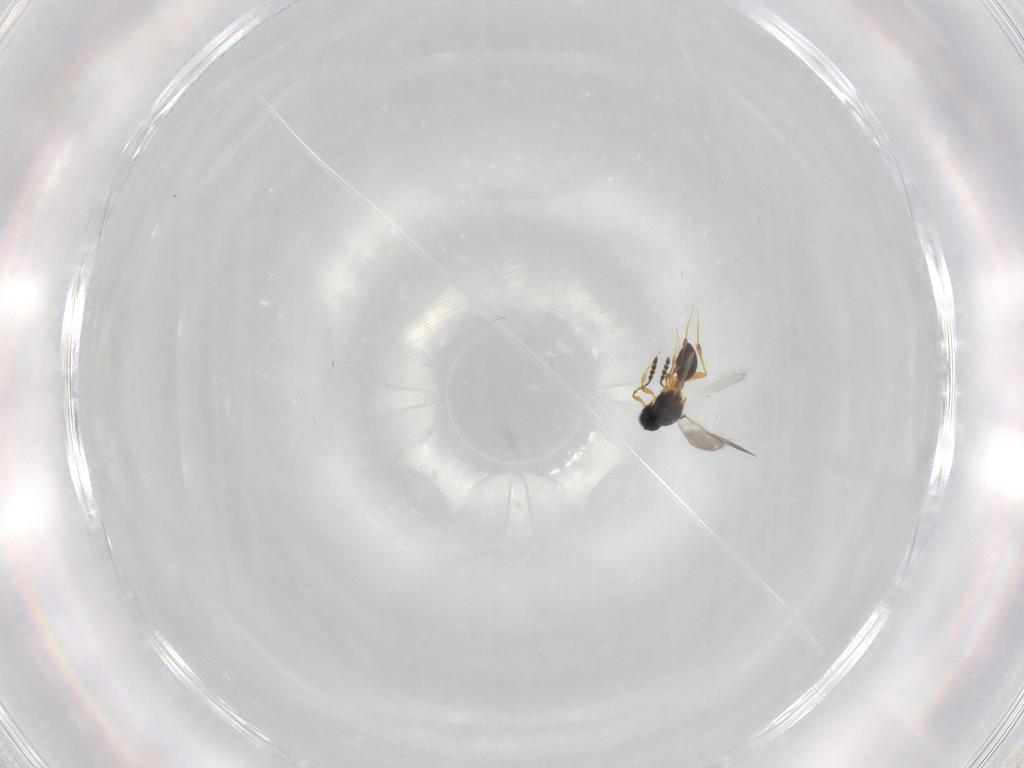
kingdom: Animalia
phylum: Arthropoda
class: Insecta
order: Hymenoptera
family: Platygastridae
